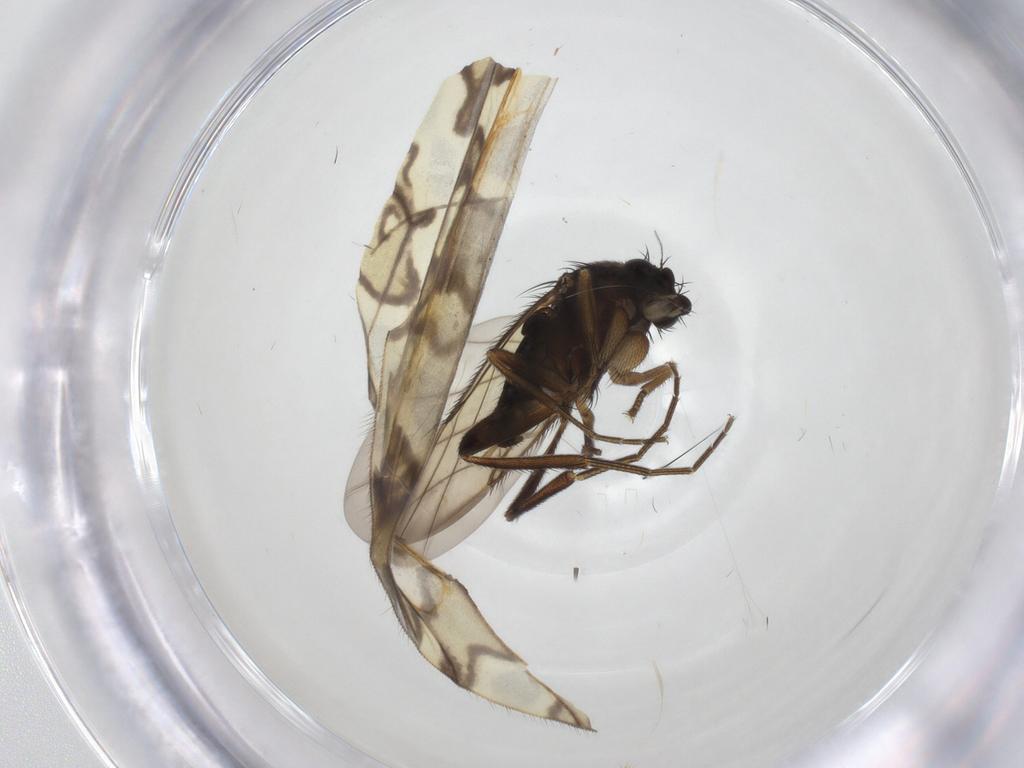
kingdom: Animalia
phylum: Arthropoda
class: Insecta
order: Diptera
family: Phoridae
